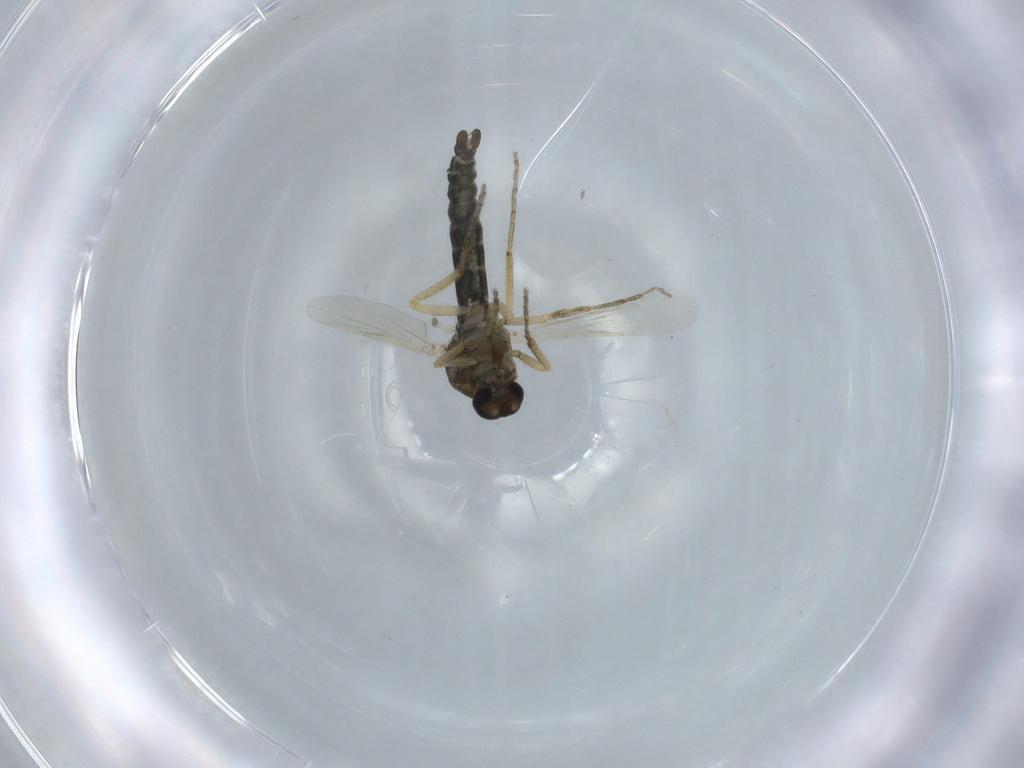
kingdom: Animalia
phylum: Arthropoda
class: Insecta
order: Diptera
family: Ceratopogonidae
